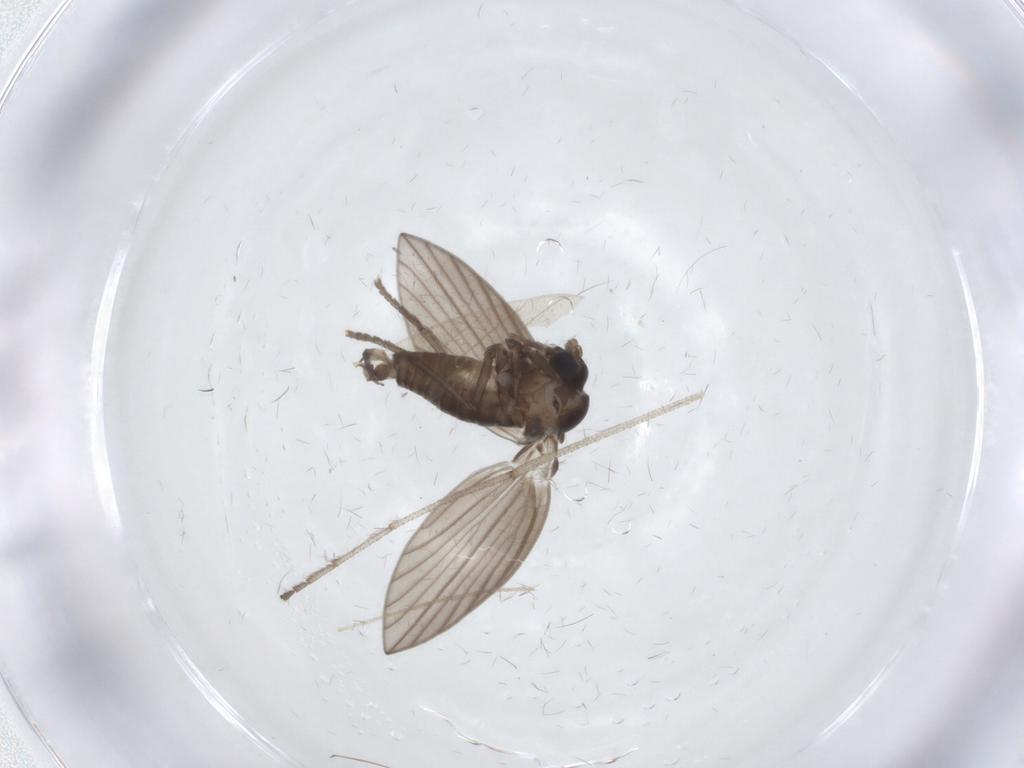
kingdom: Animalia
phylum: Arthropoda
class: Insecta
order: Diptera
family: Psychodidae
